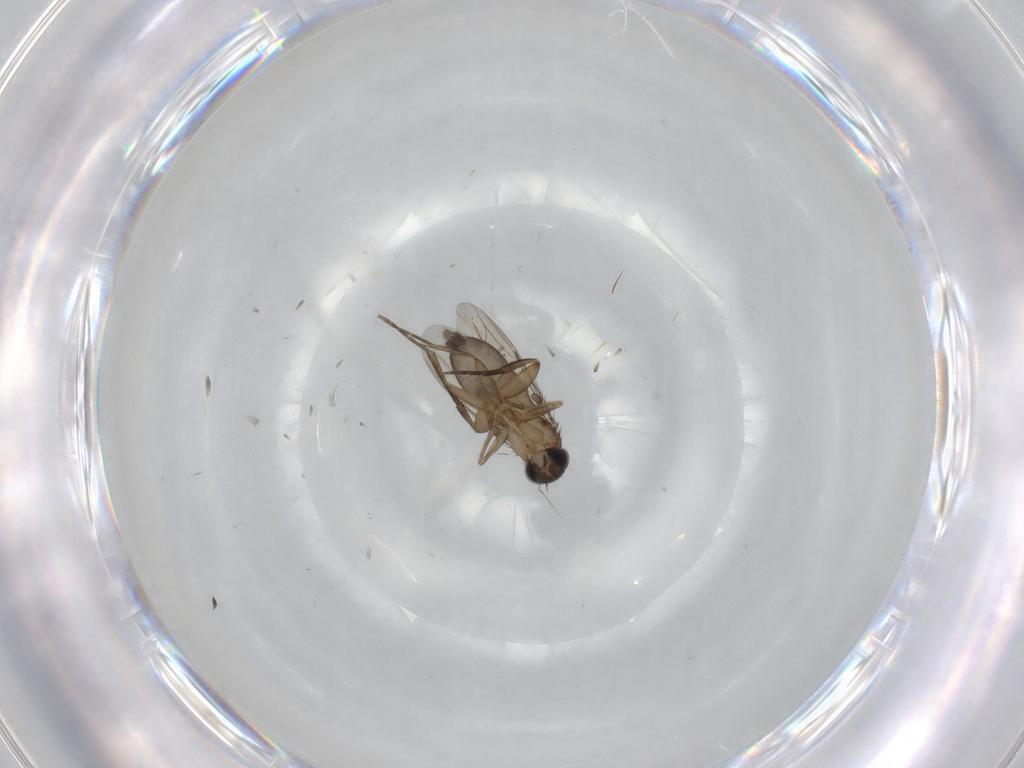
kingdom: Animalia
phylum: Arthropoda
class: Insecta
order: Diptera
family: Phoridae
